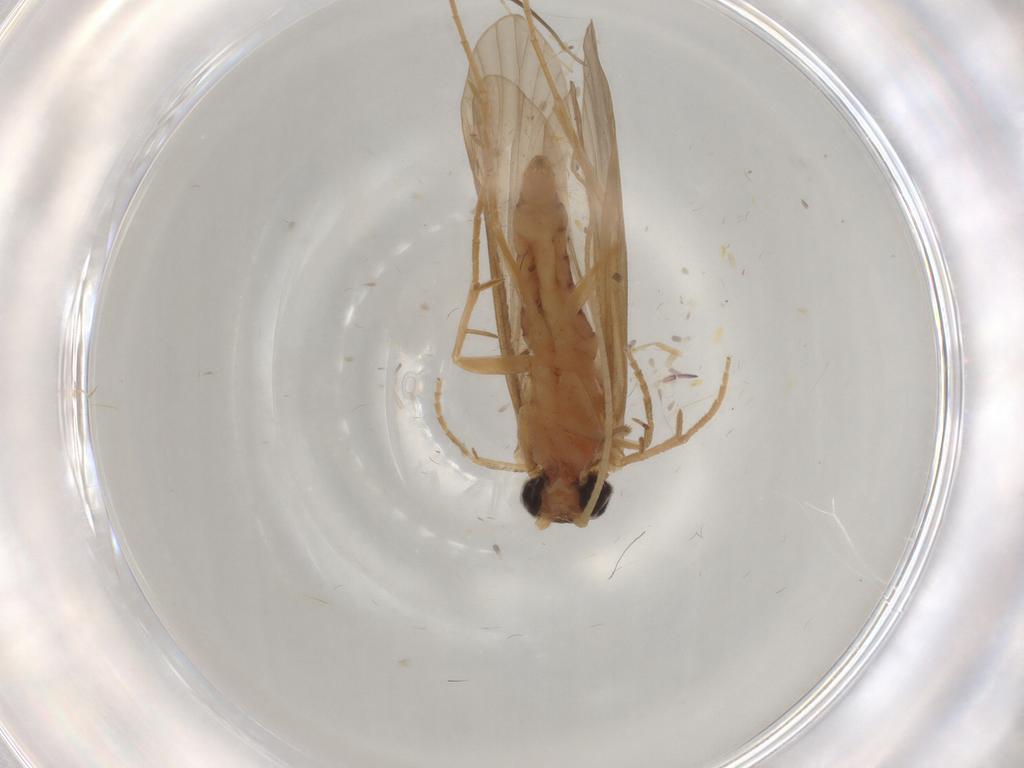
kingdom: Animalia
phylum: Arthropoda
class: Insecta
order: Trichoptera
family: Ecnomidae
